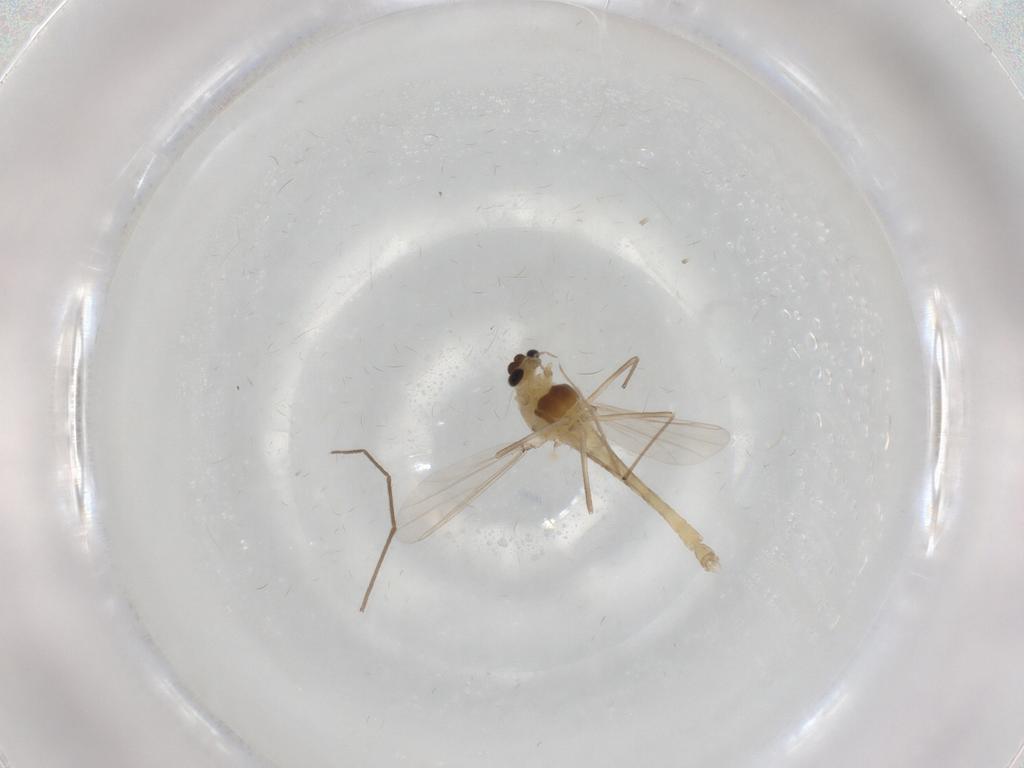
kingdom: Animalia
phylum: Arthropoda
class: Insecta
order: Diptera
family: Chironomidae
